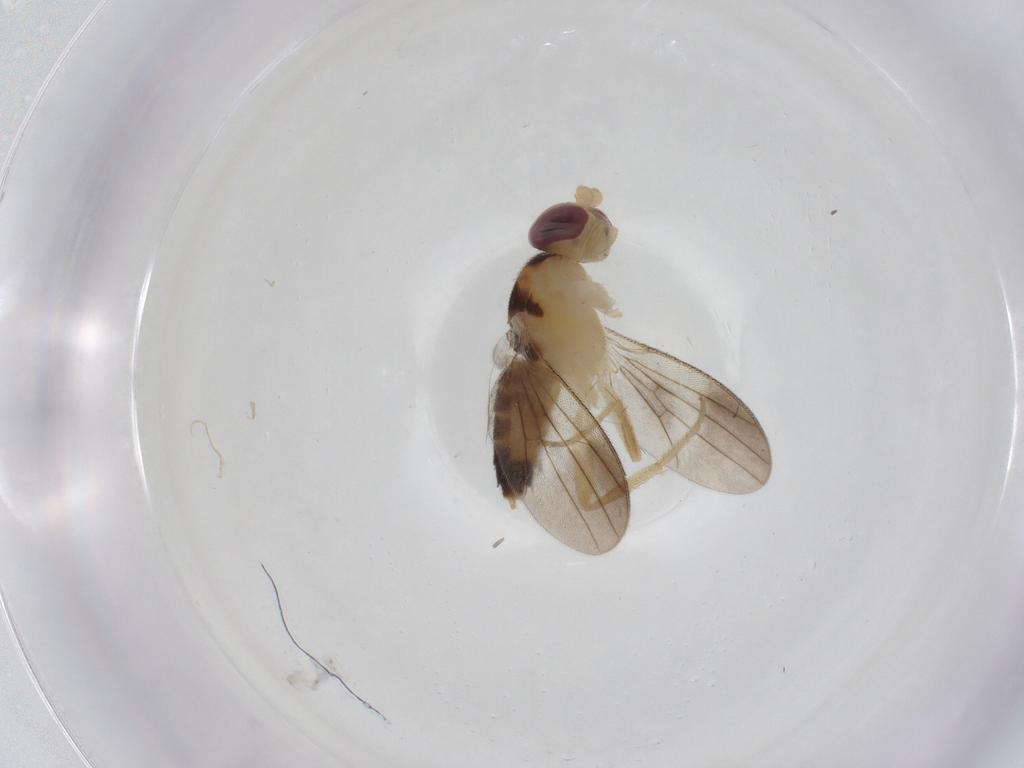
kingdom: Animalia
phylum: Arthropoda
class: Insecta
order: Diptera
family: Clusiidae
